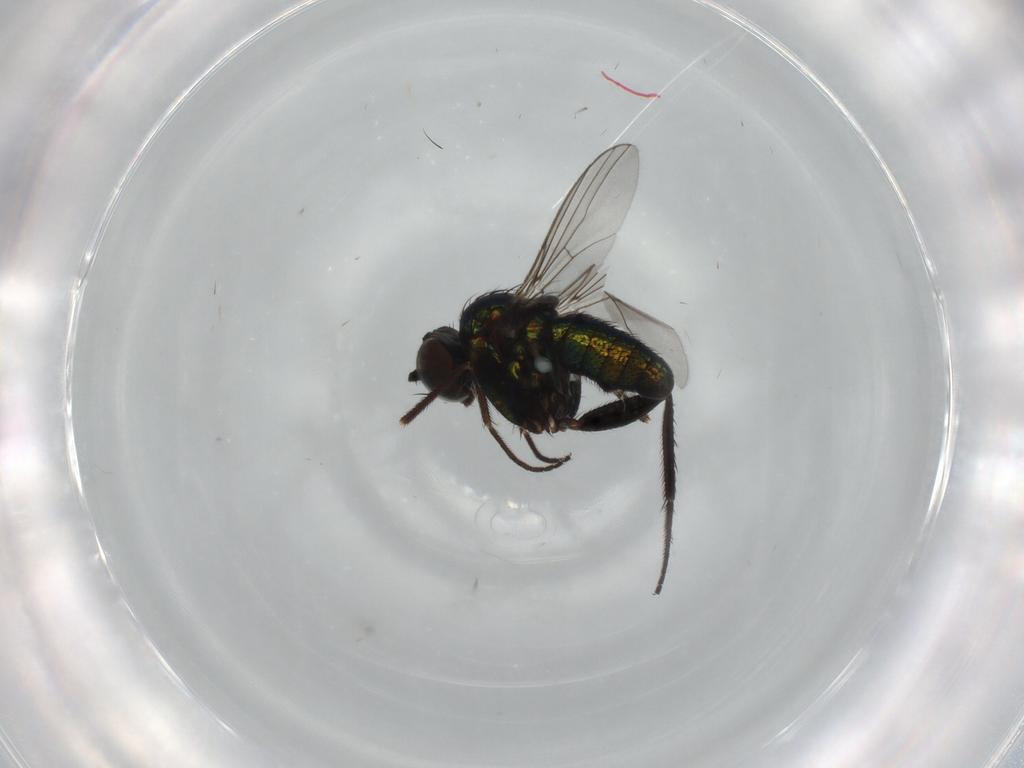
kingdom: Animalia
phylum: Arthropoda
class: Insecta
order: Diptera
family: Dolichopodidae
